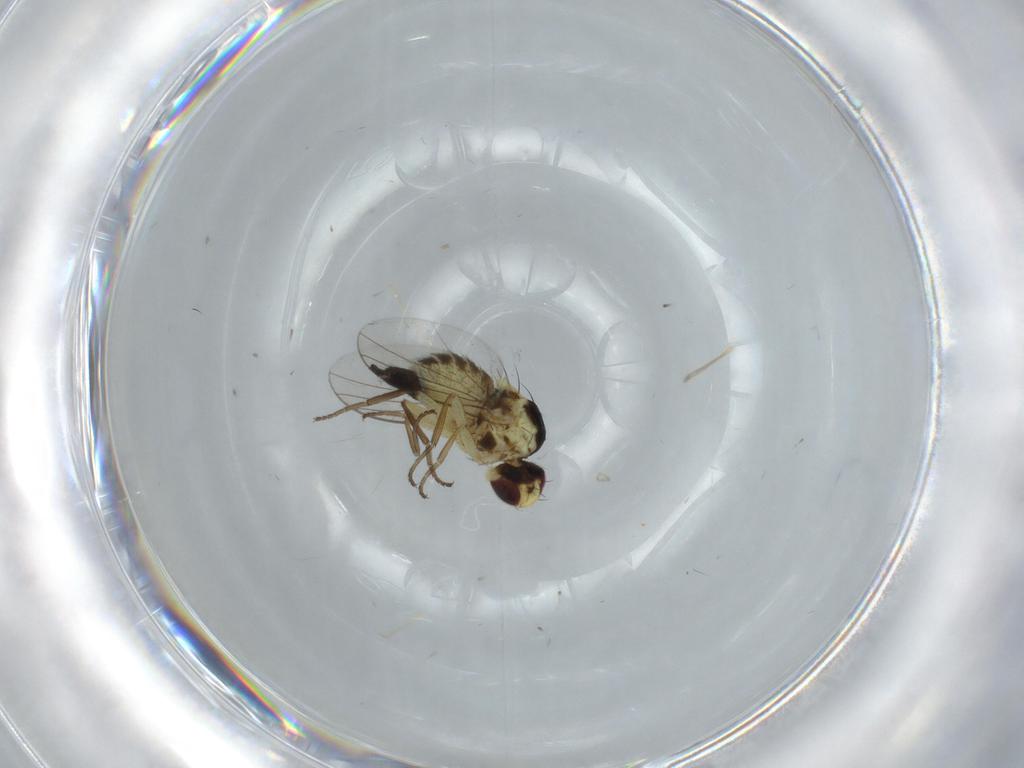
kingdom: Animalia
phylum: Arthropoda
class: Insecta
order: Diptera
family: Agromyzidae
